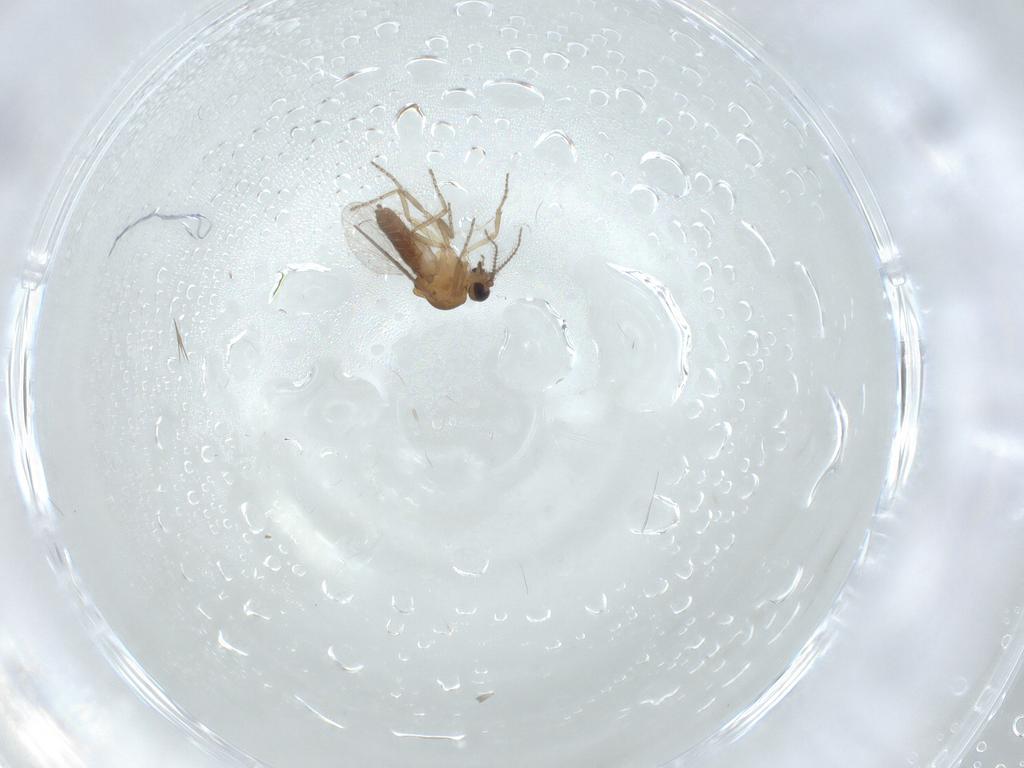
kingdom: Animalia
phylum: Arthropoda
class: Insecta
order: Diptera
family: Ceratopogonidae
